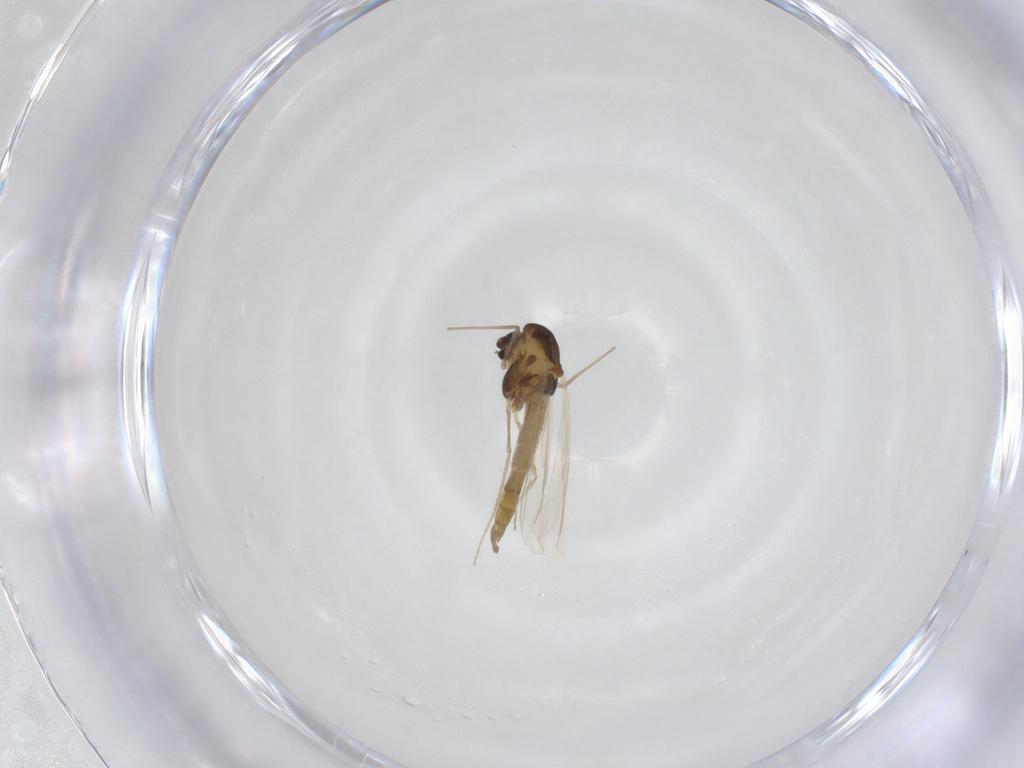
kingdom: Animalia
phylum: Arthropoda
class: Insecta
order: Diptera
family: Chironomidae
